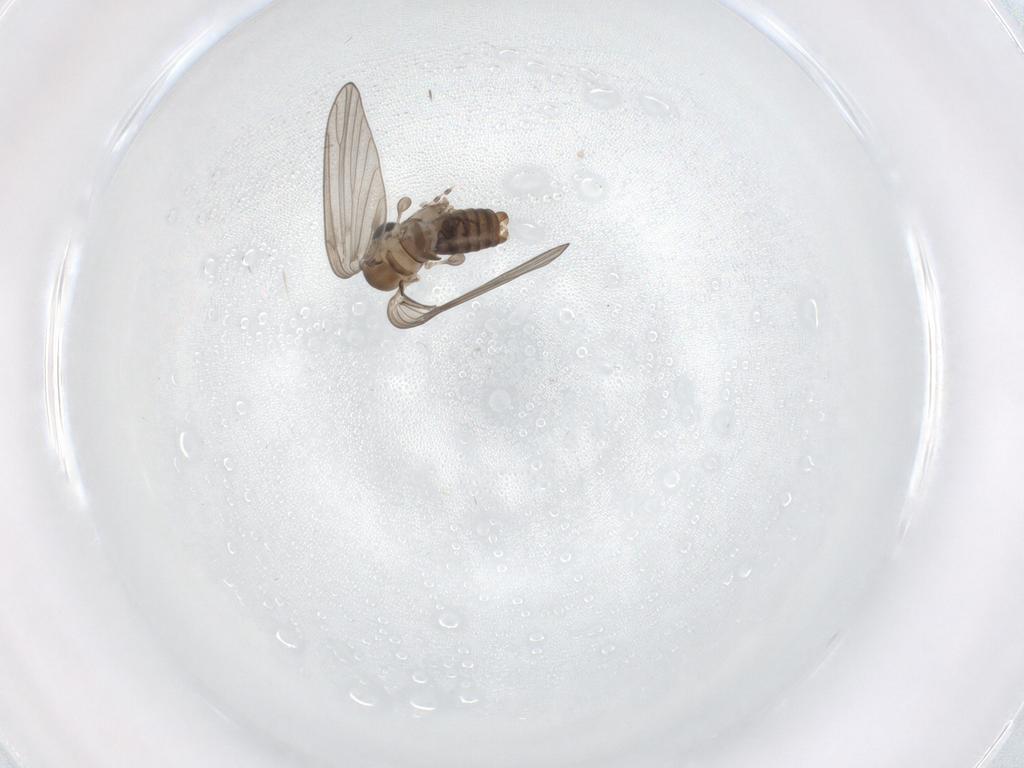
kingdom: Animalia
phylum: Arthropoda
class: Insecta
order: Diptera
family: Psychodidae
